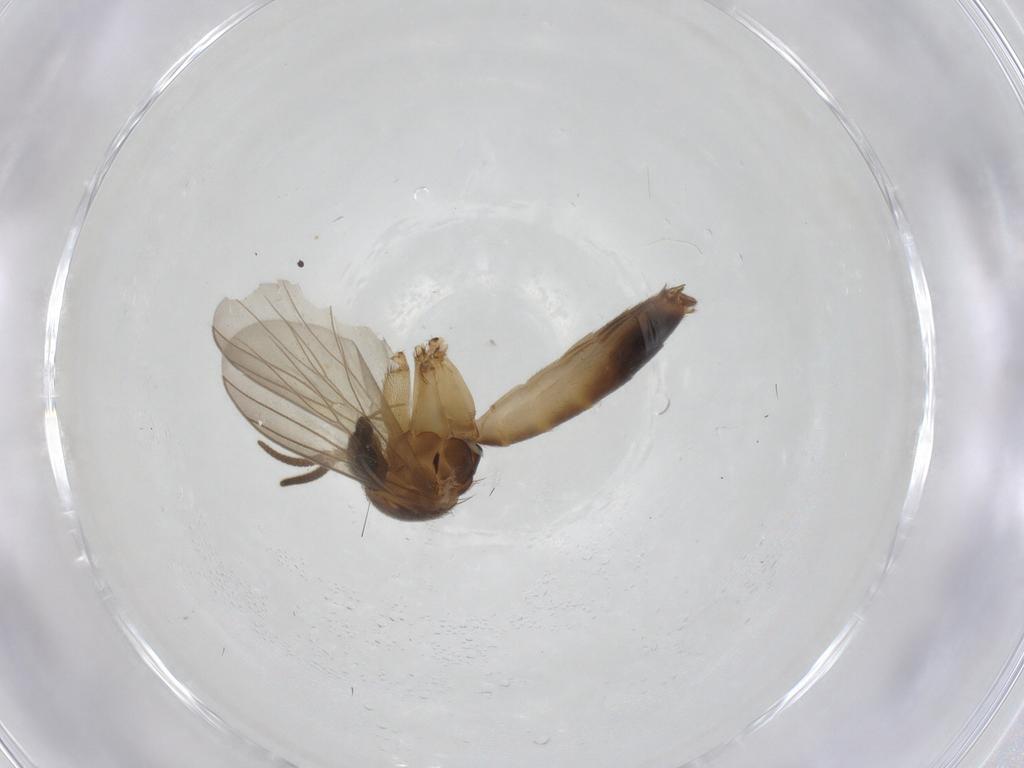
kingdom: Animalia
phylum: Arthropoda
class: Insecta
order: Diptera
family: Mycetophilidae
